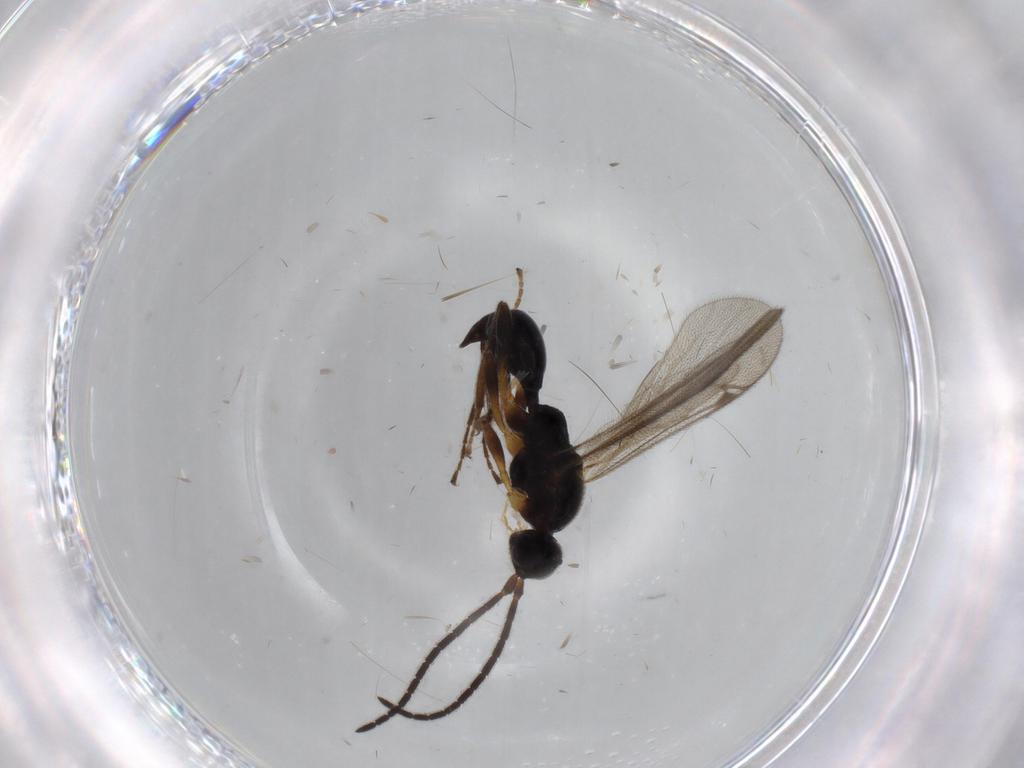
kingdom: Animalia
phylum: Arthropoda
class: Insecta
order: Hymenoptera
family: Proctotrupidae
